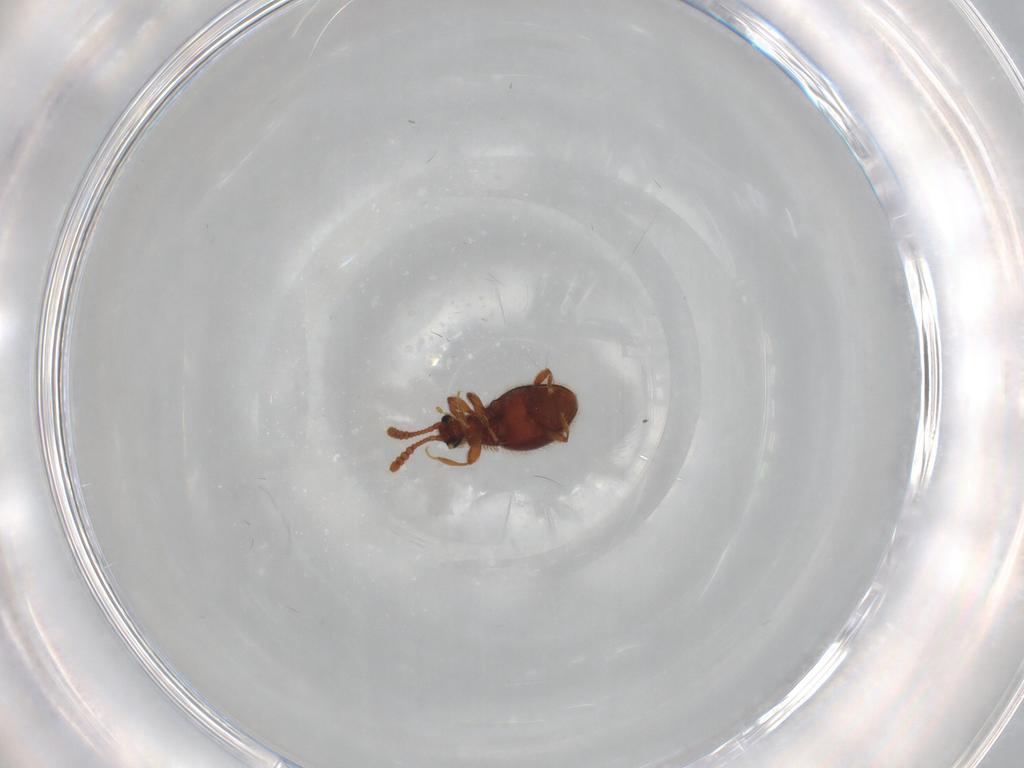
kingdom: Animalia
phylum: Arthropoda
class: Insecta
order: Coleoptera
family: Staphylinidae
